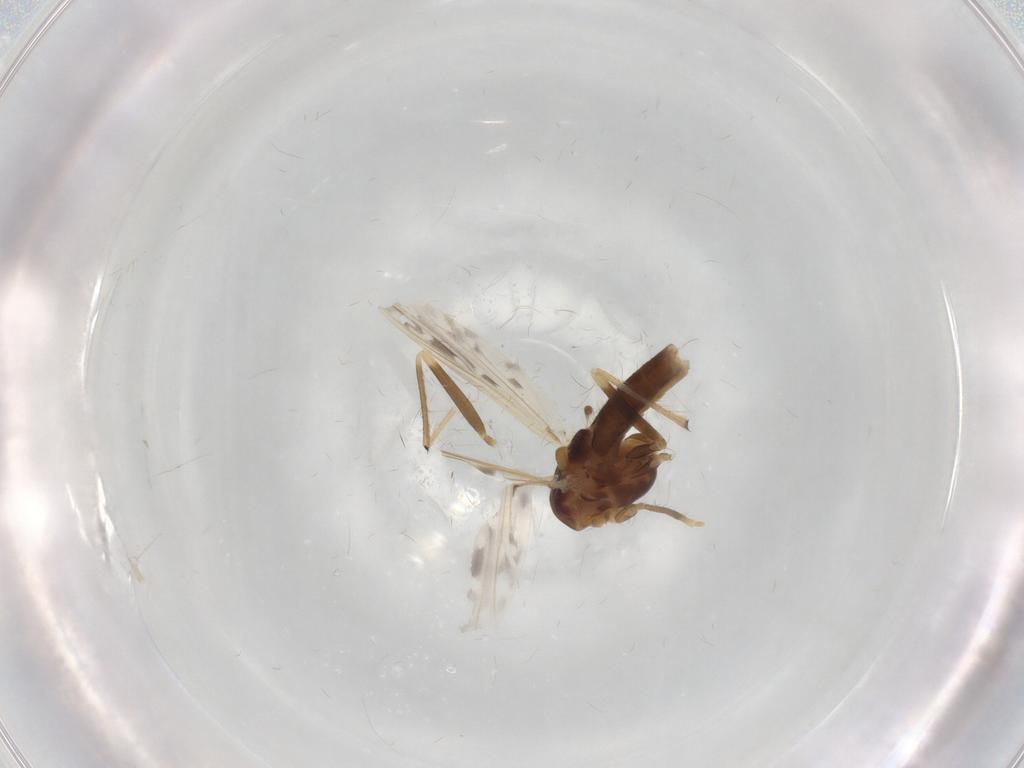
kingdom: Animalia
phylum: Arthropoda
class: Insecta
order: Diptera
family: Chironomidae
